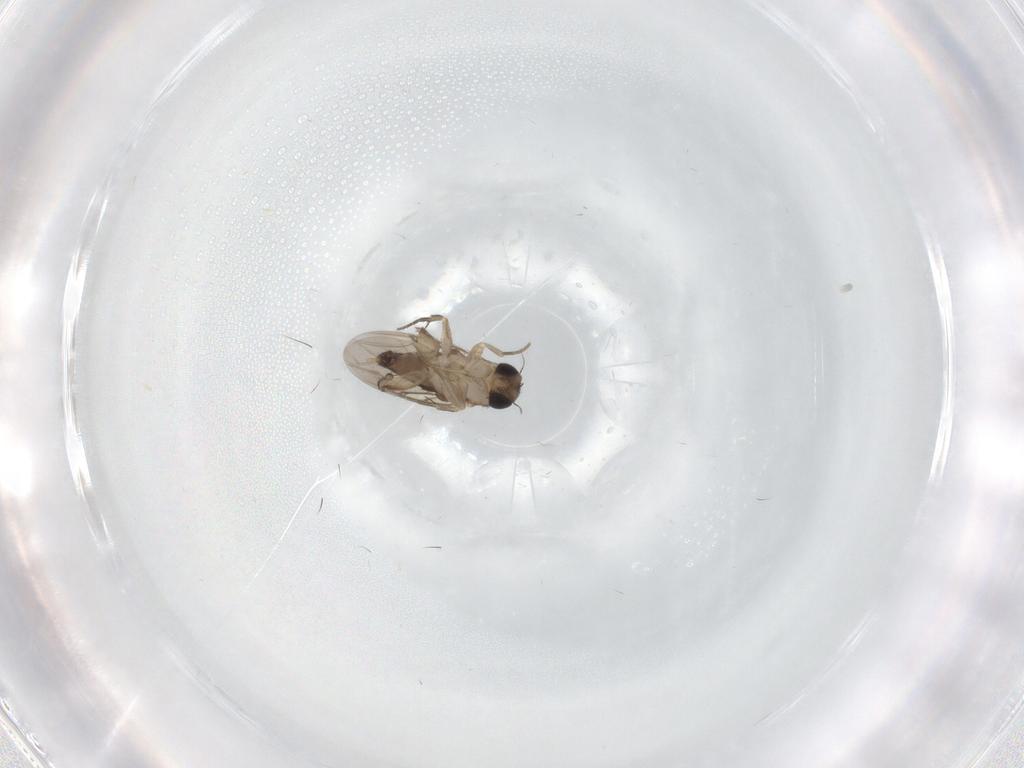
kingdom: Animalia
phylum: Arthropoda
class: Insecta
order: Diptera
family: Phoridae
